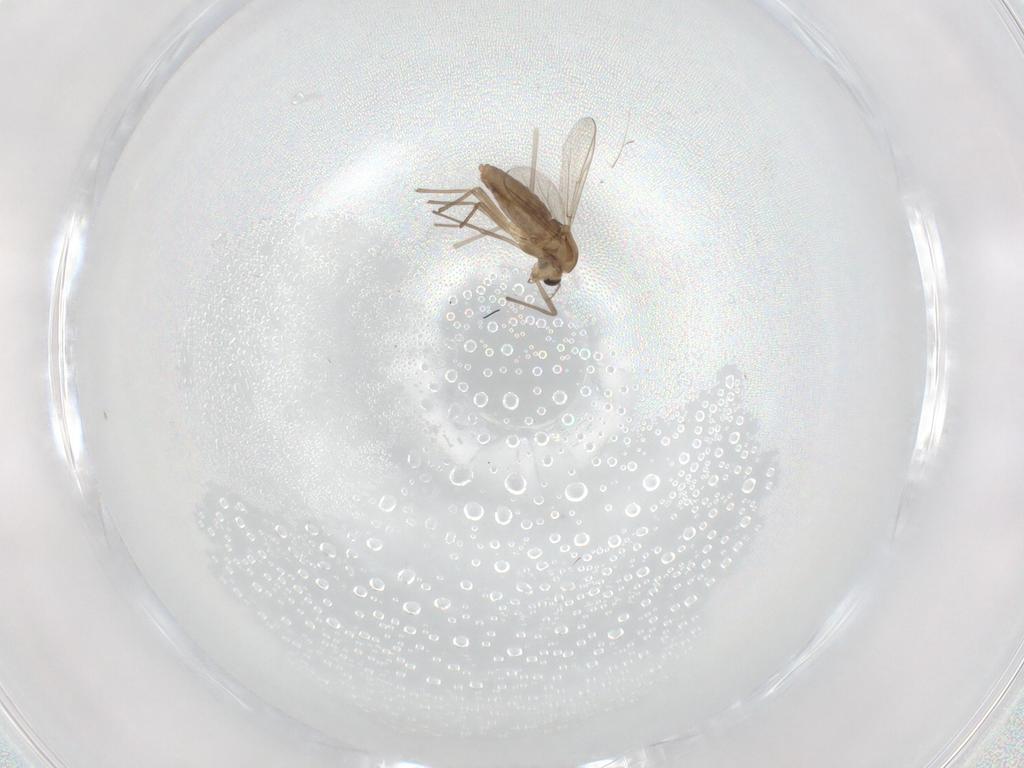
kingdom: Animalia
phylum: Arthropoda
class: Insecta
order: Diptera
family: Chironomidae
